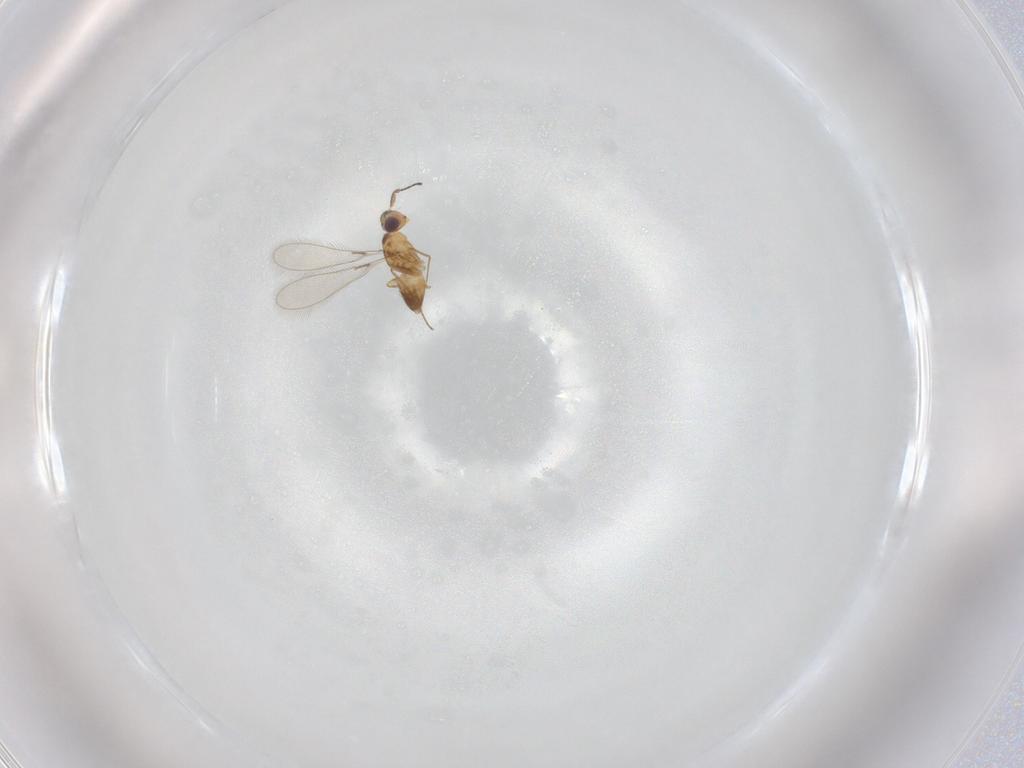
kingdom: Animalia
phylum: Arthropoda
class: Insecta
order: Hymenoptera
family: Mymaridae
